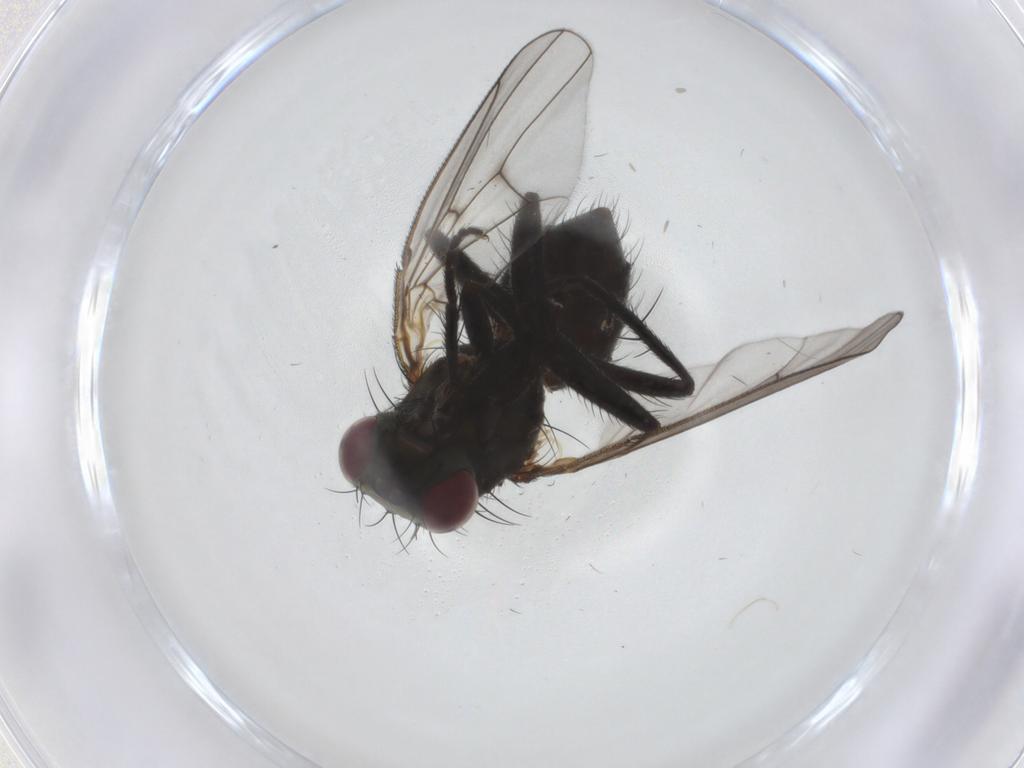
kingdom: Animalia
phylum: Arthropoda
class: Insecta
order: Diptera
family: Muscidae
